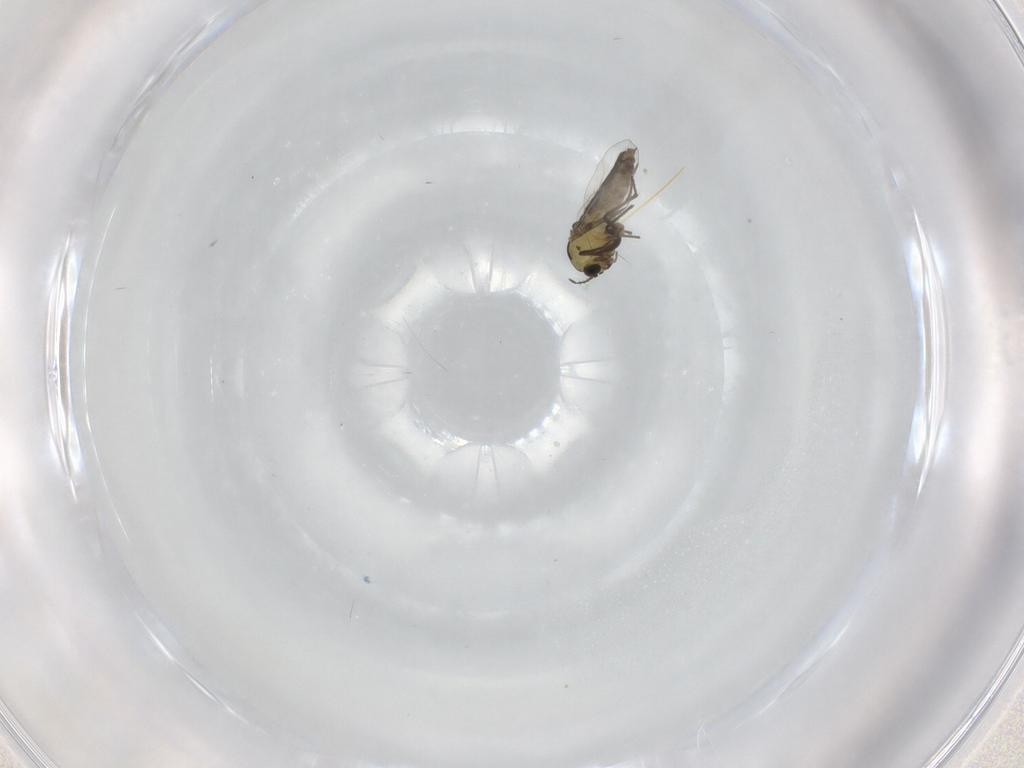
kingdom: Animalia
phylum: Arthropoda
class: Insecta
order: Diptera
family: Chironomidae
